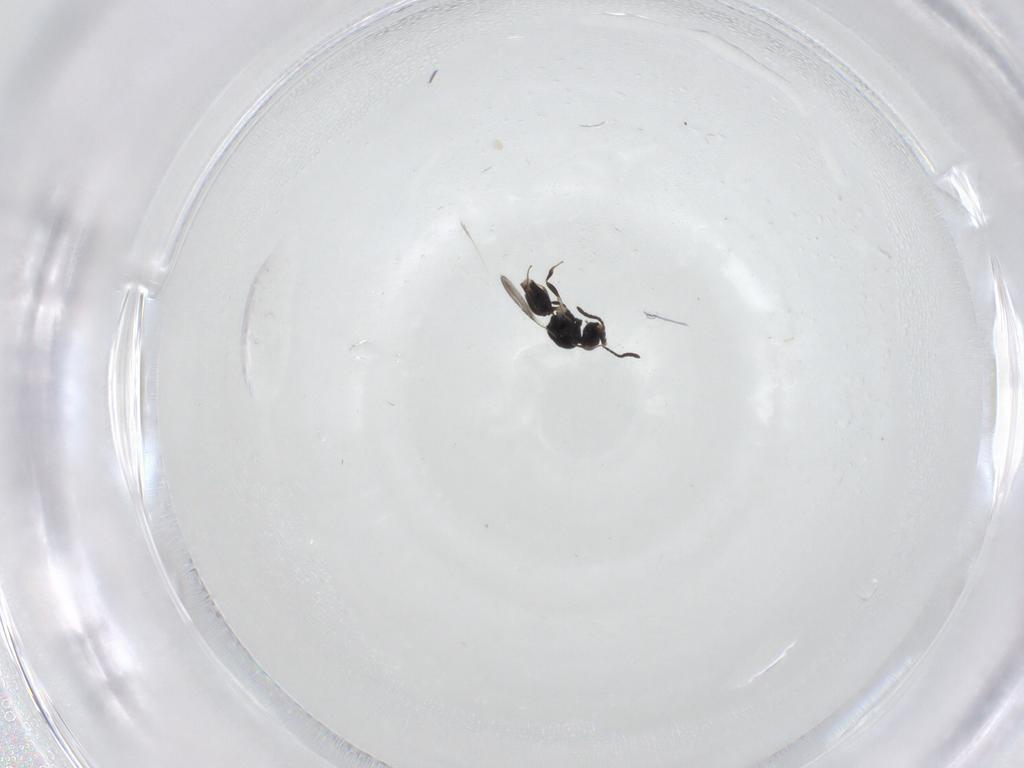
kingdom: Animalia
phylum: Arthropoda
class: Insecta
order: Hymenoptera
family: Ceraphronidae
